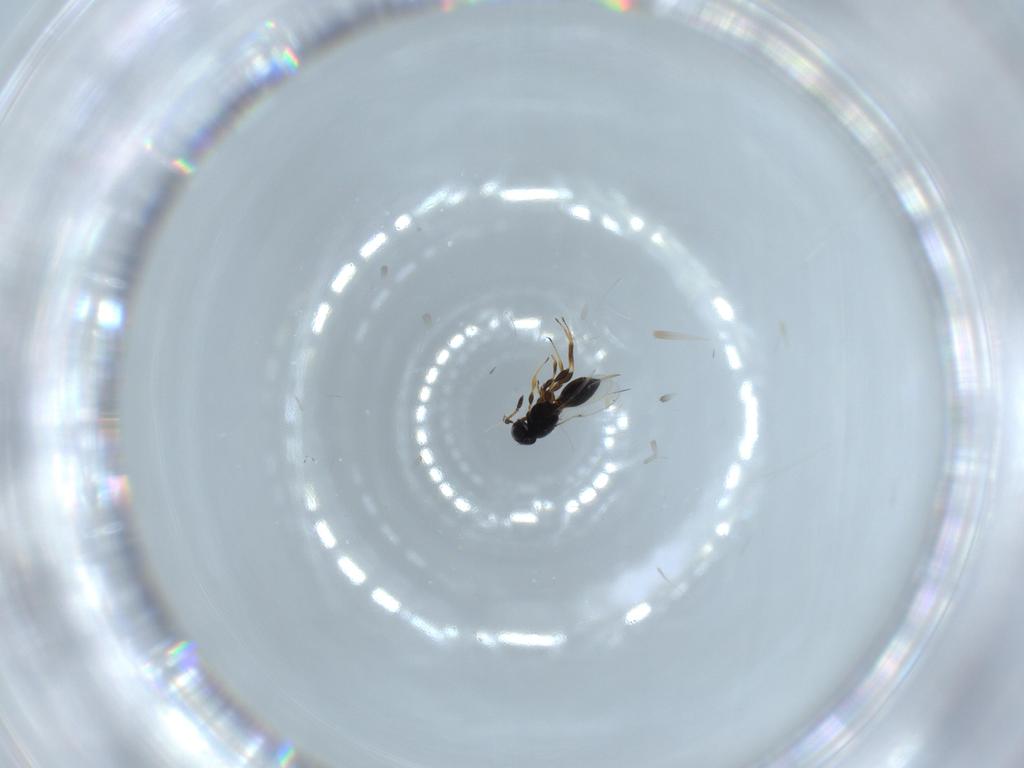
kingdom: Animalia
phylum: Arthropoda
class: Insecta
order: Hymenoptera
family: Platygastridae
